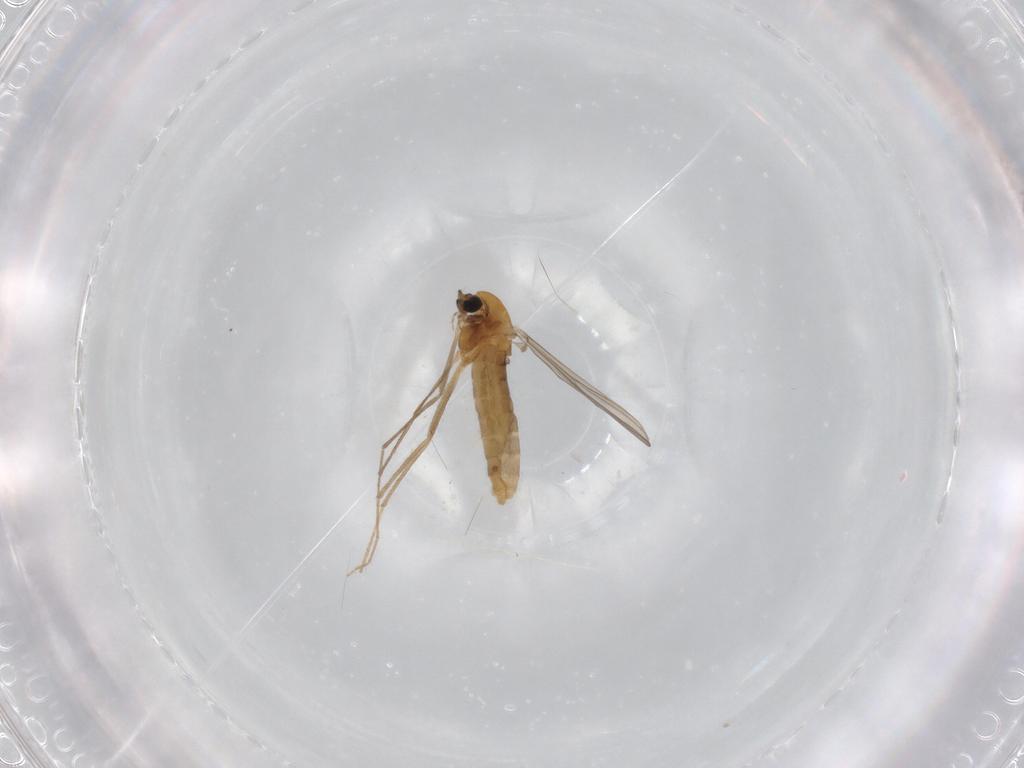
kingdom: Animalia
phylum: Arthropoda
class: Insecta
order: Diptera
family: Chironomidae
